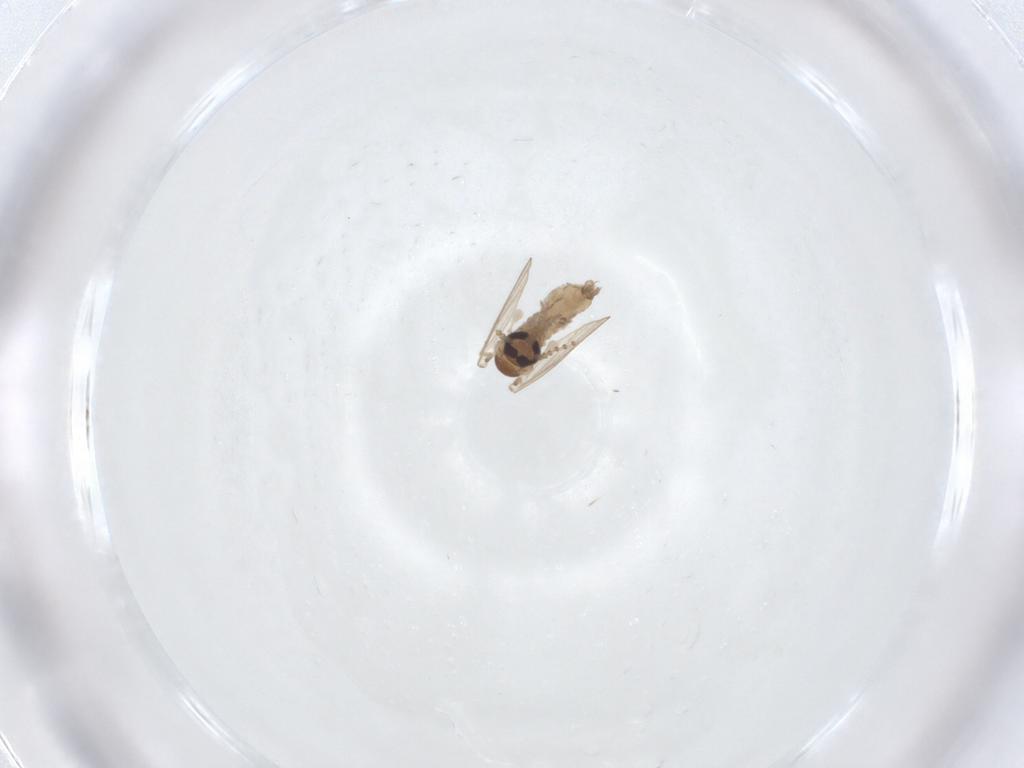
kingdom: Animalia
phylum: Arthropoda
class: Insecta
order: Diptera
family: Psychodidae
